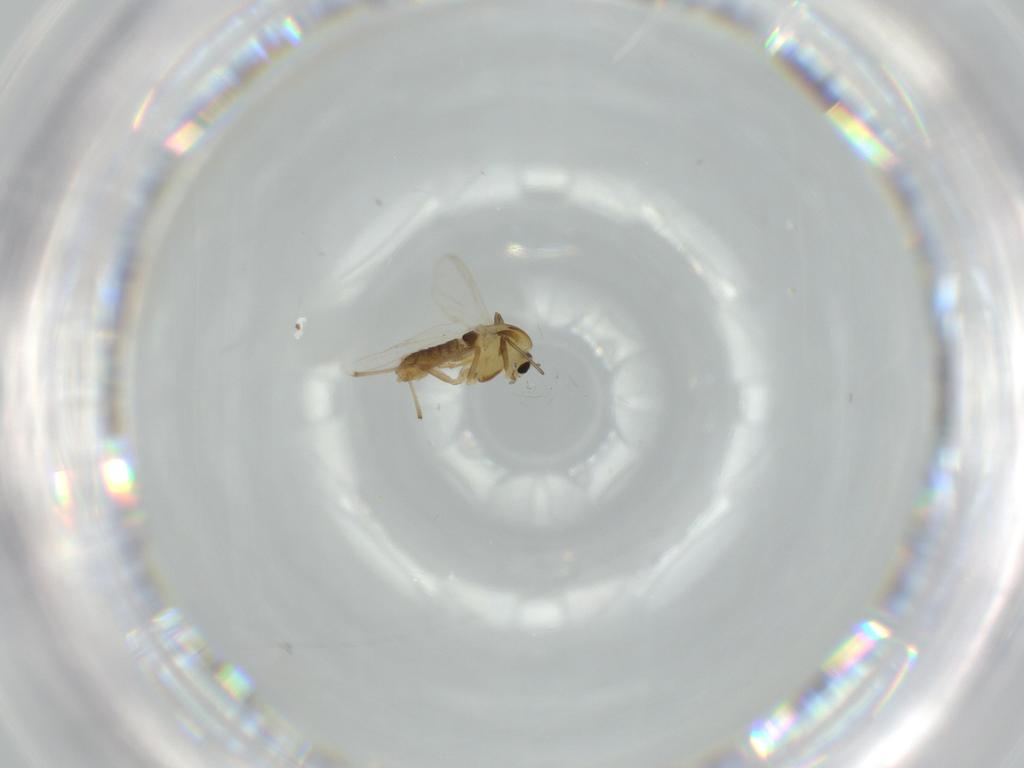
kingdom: Animalia
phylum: Arthropoda
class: Insecta
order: Diptera
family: Chironomidae
